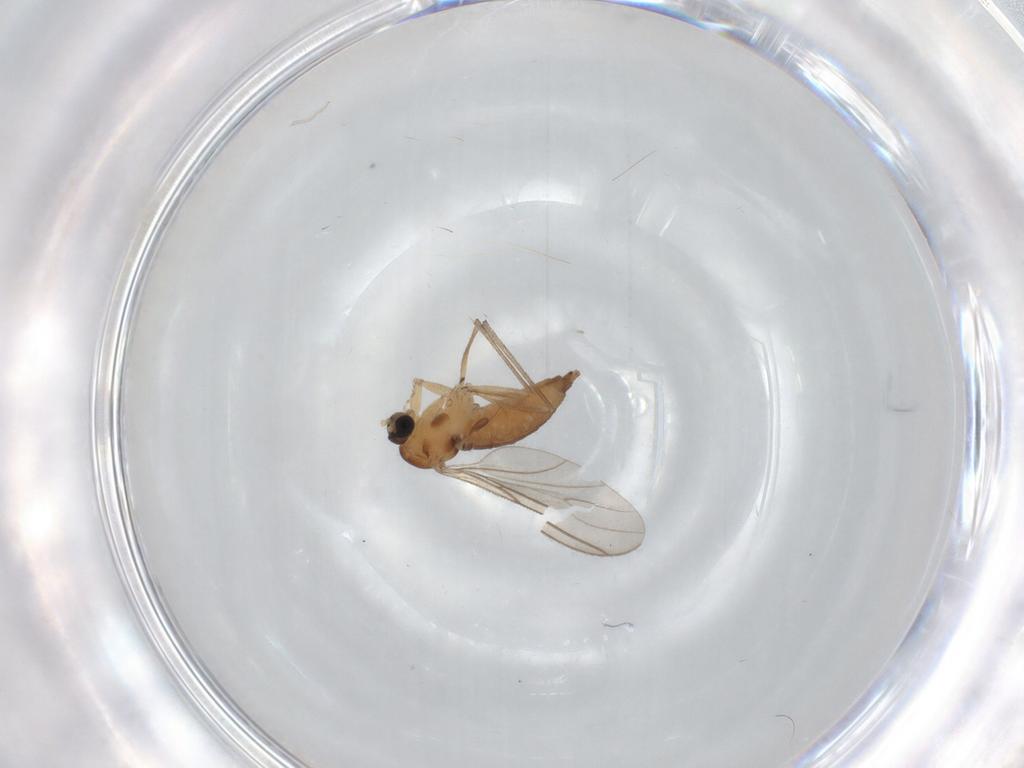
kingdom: Animalia
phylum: Arthropoda
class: Insecta
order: Diptera
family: Sciaridae
